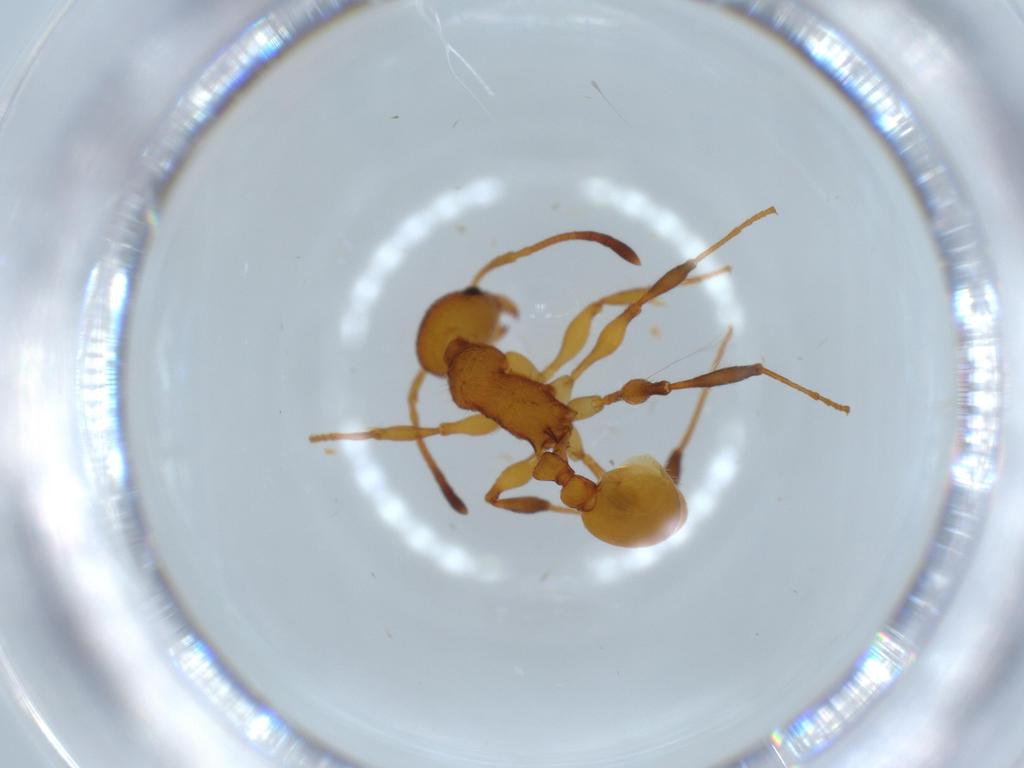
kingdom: Animalia
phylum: Arthropoda
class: Insecta
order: Hymenoptera
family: Formicidae
